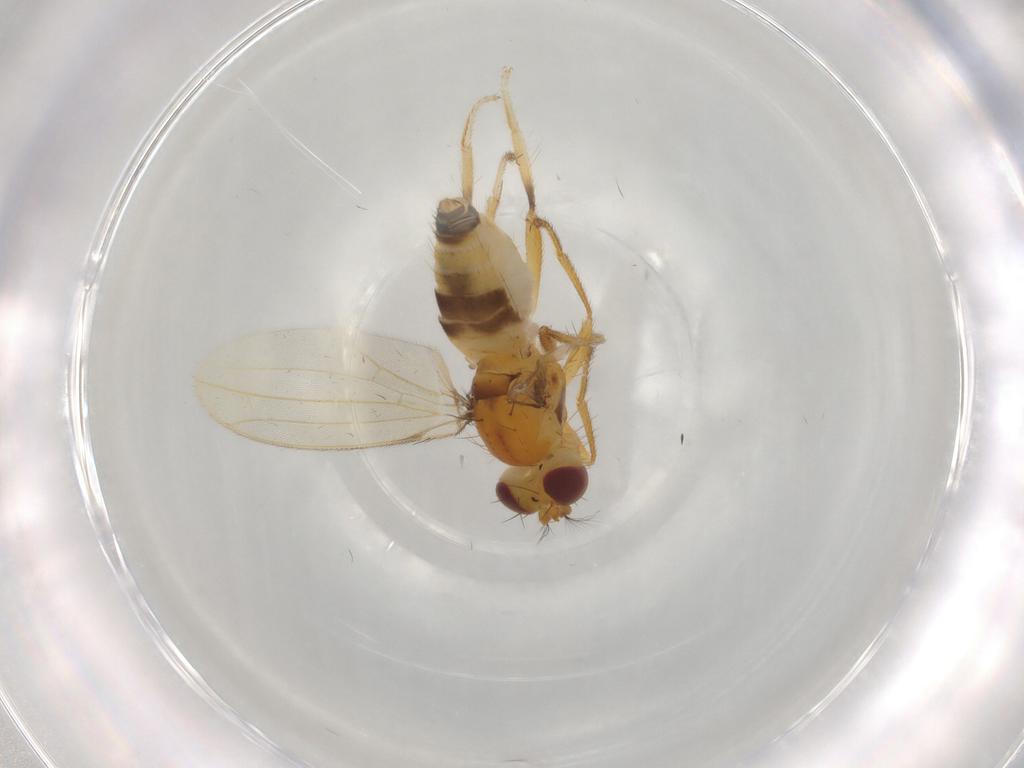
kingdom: Animalia
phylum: Arthropoda
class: Insecta
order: Diptera
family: Periscelididae
